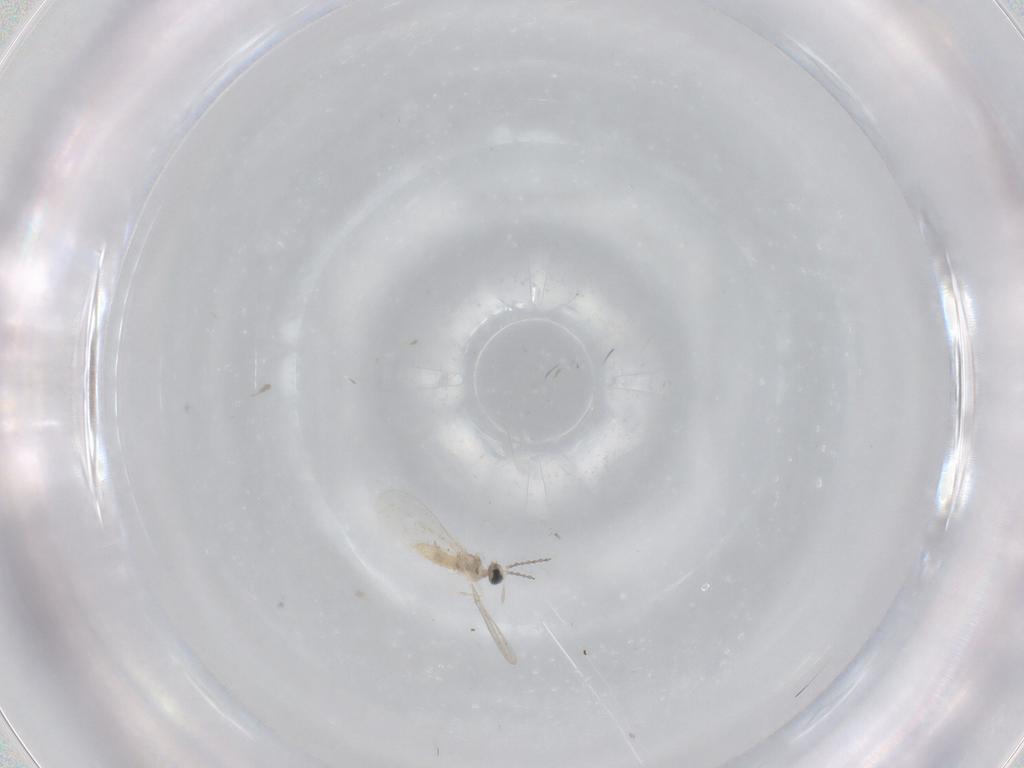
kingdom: Animalia
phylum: Arthropoda
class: Insecta
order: Diptera
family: Cecidomyiidae
